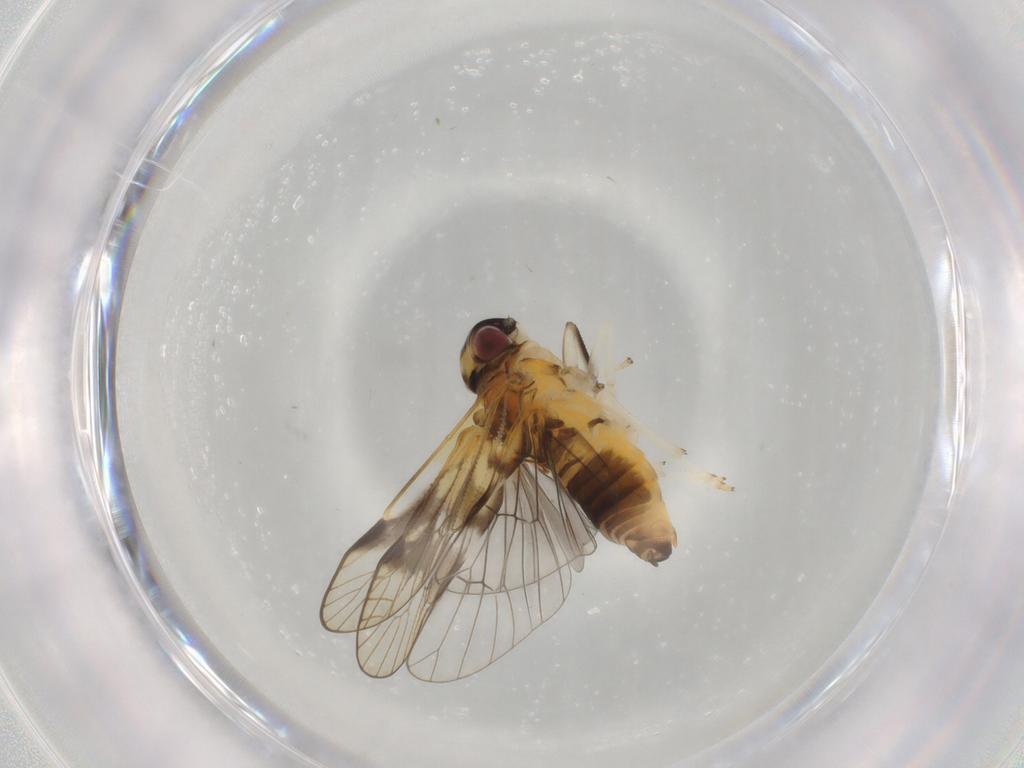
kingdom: Animalia
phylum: Arthropoda
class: Insecta
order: Hemiptera
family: Cixiidae
